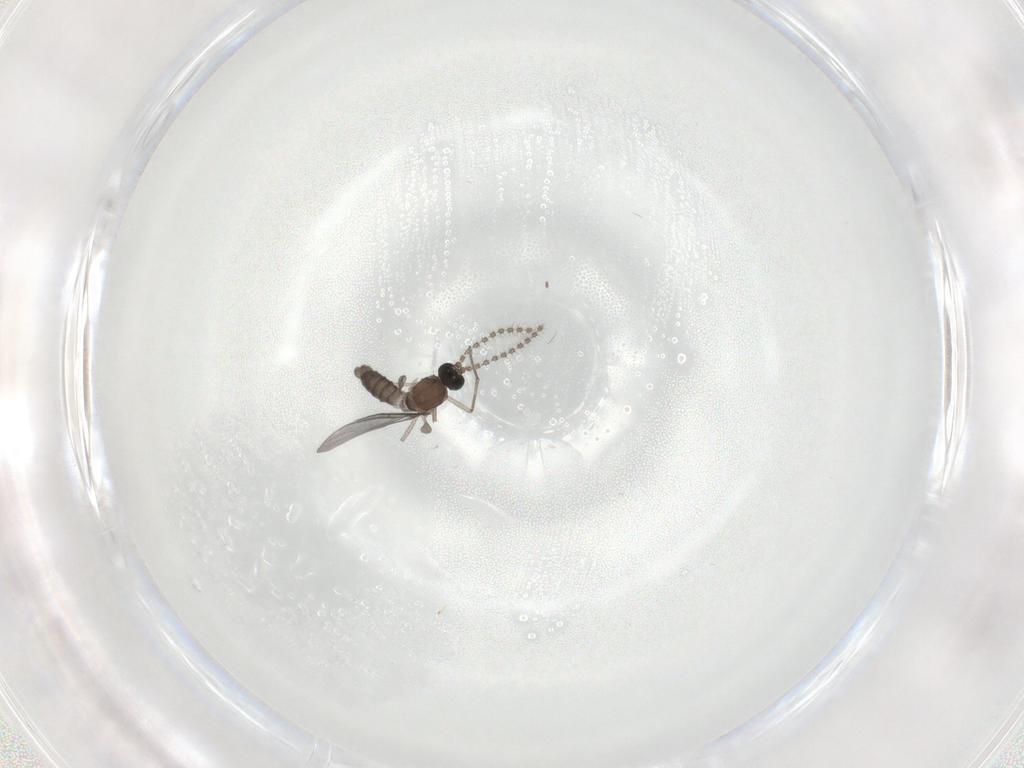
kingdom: Animalia
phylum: Arthropoda
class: Insecta
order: Diptera
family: Sciaridae
